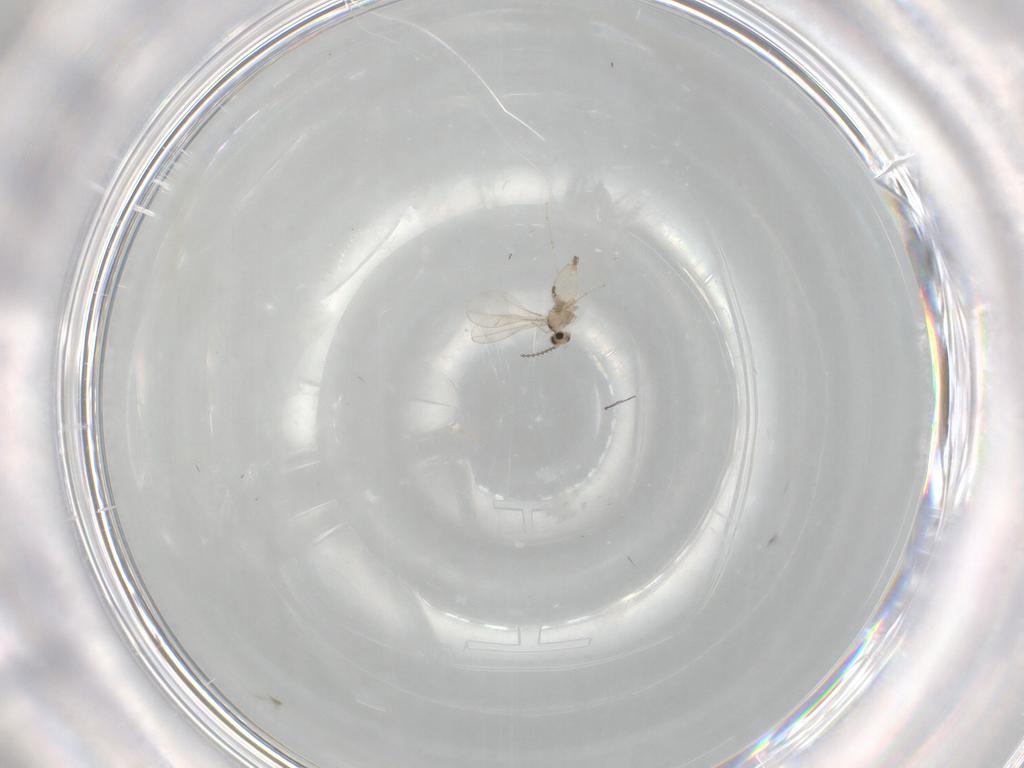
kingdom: Animalia
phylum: Arthropoda
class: Insecta
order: Diptera
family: Cecidomyiidae
